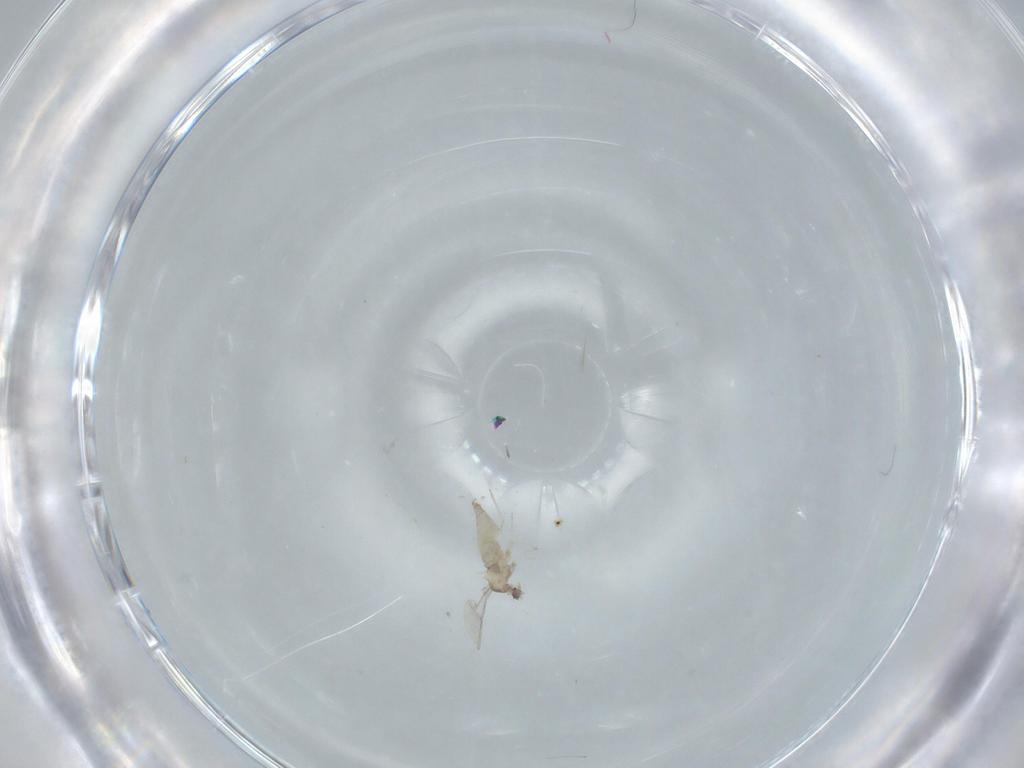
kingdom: Animalia
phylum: Arthropoda
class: Insecta
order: Diptera
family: Cecidomyiidae
